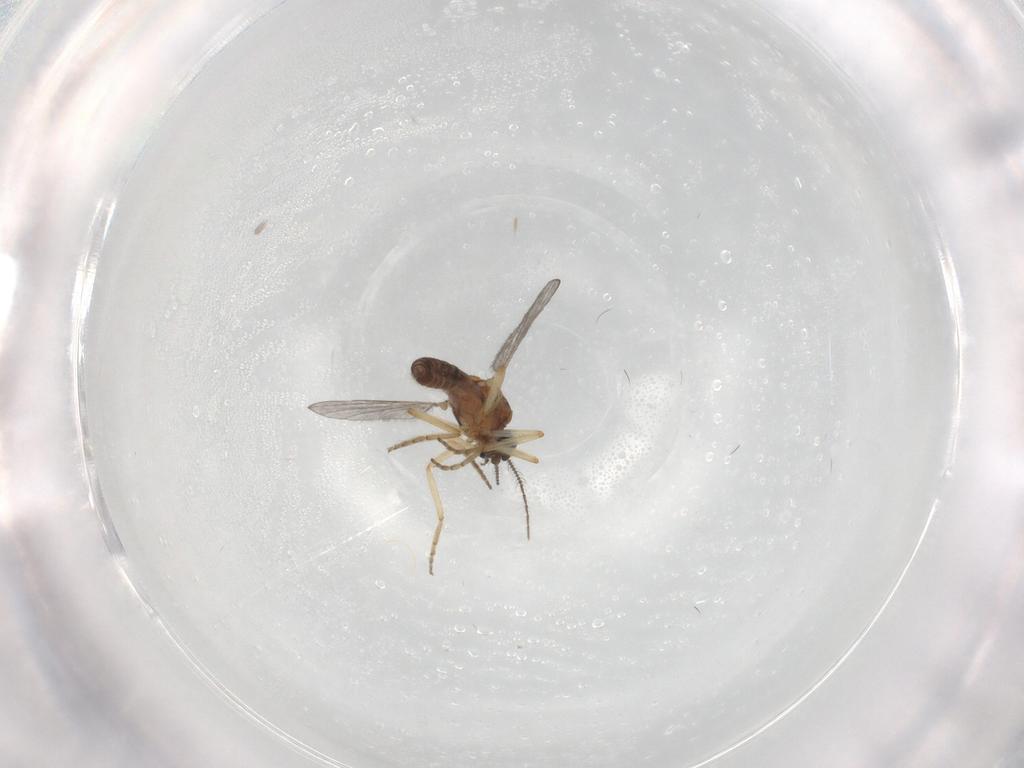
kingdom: Animalia
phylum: Arthropoda
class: Insecta
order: Diptera
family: Ceratopogonidae
